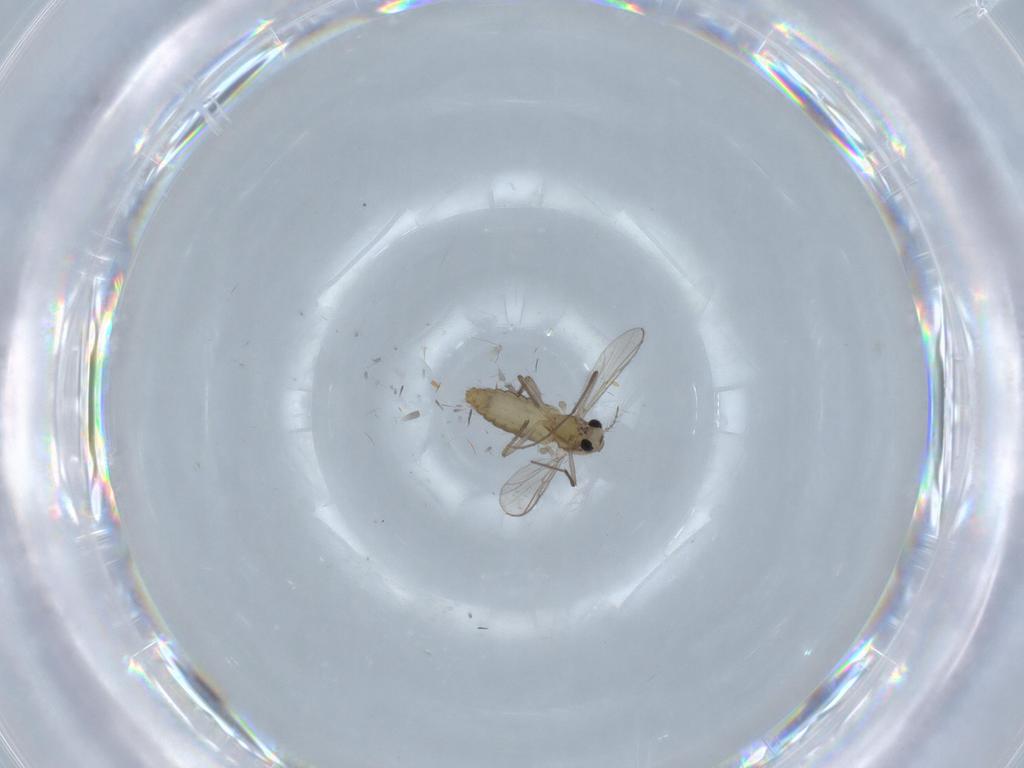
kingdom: Animalia
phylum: Arthropoda
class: Insecta
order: Diptera
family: Chironomidae
